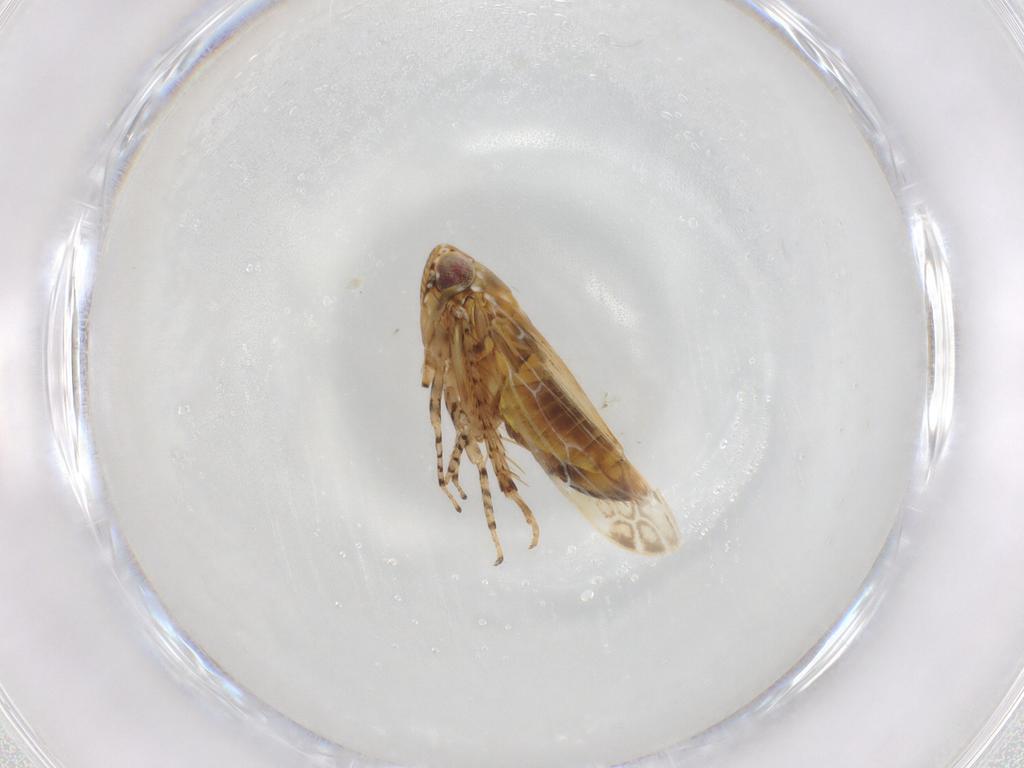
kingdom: Animalia
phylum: Arthropoda
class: Insecta
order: Hemiptera
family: Cicadellidae
